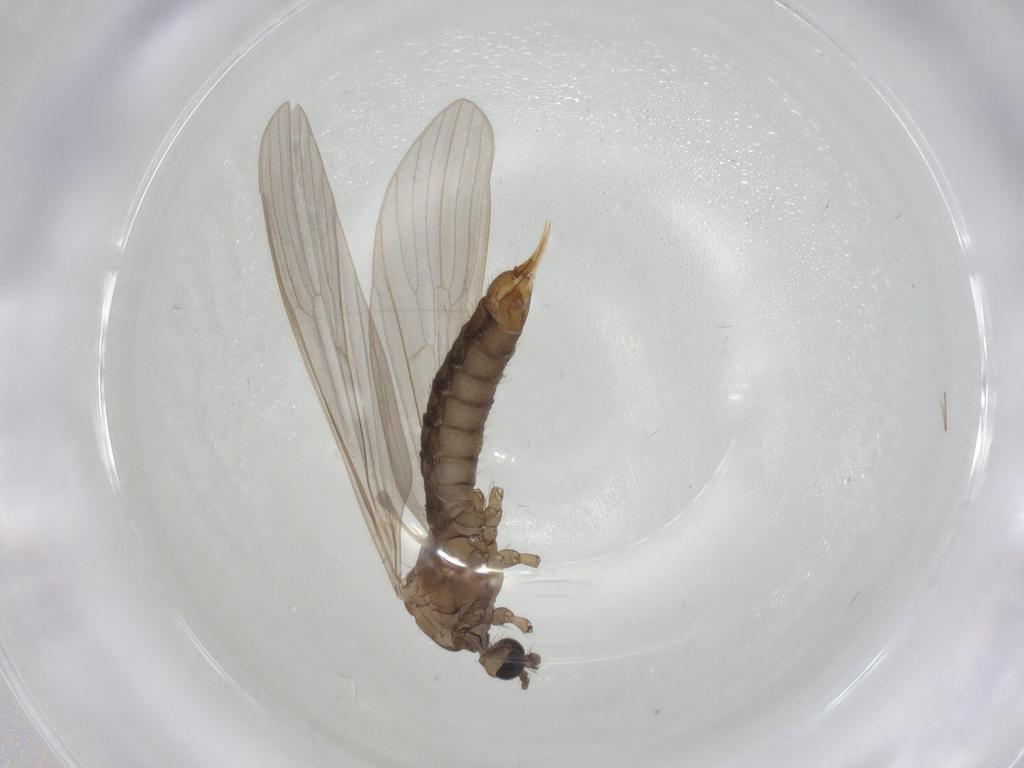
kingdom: Animalia
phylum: Arthropoda
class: Insecta
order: Diptera
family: Limoniidae
